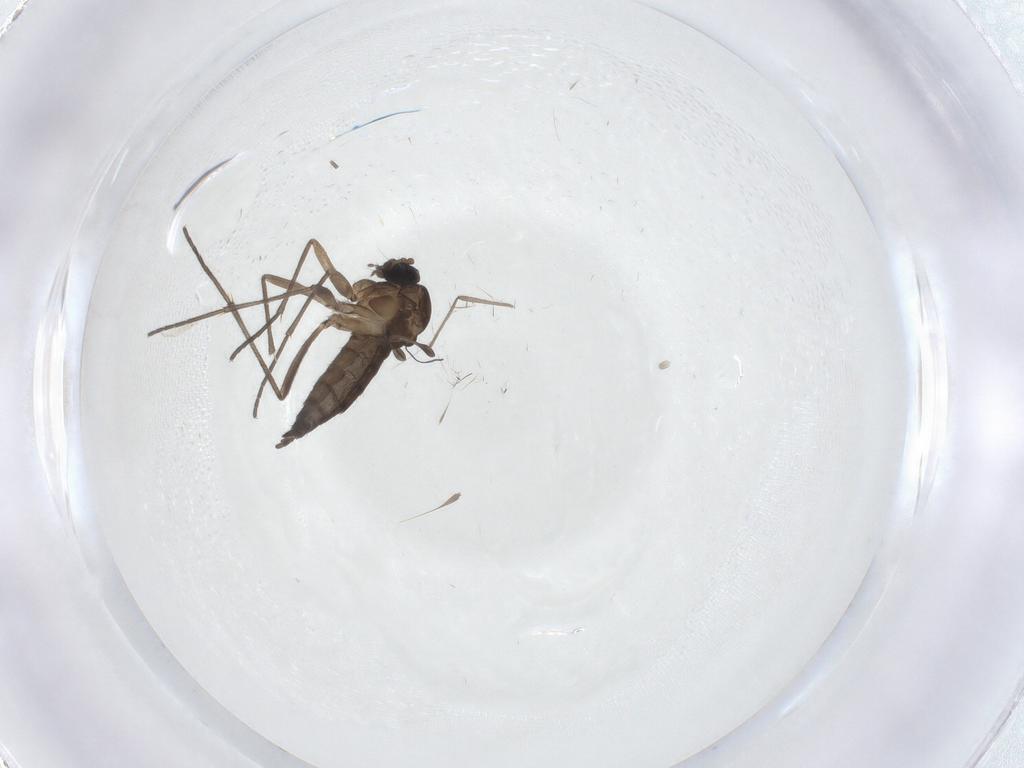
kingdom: Animalia
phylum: Arthropoda
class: Insecta
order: Diptera
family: Sciaridae
